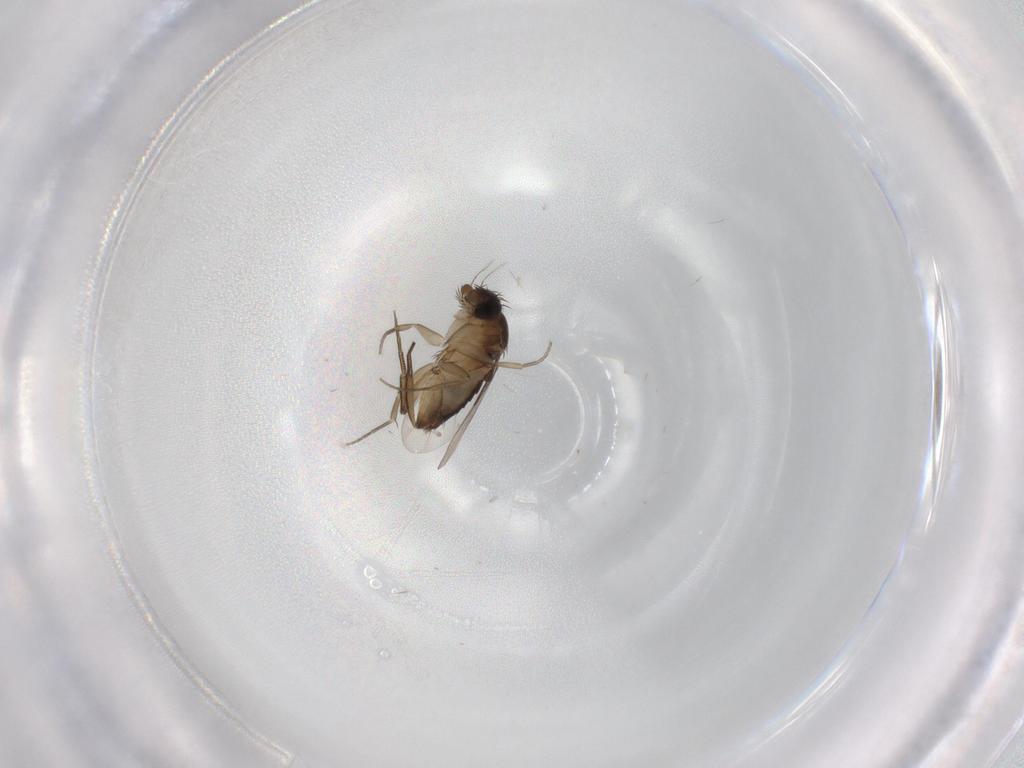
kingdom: Animalia
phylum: Arthropoda
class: Insecta
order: Diptera
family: Phoridae
